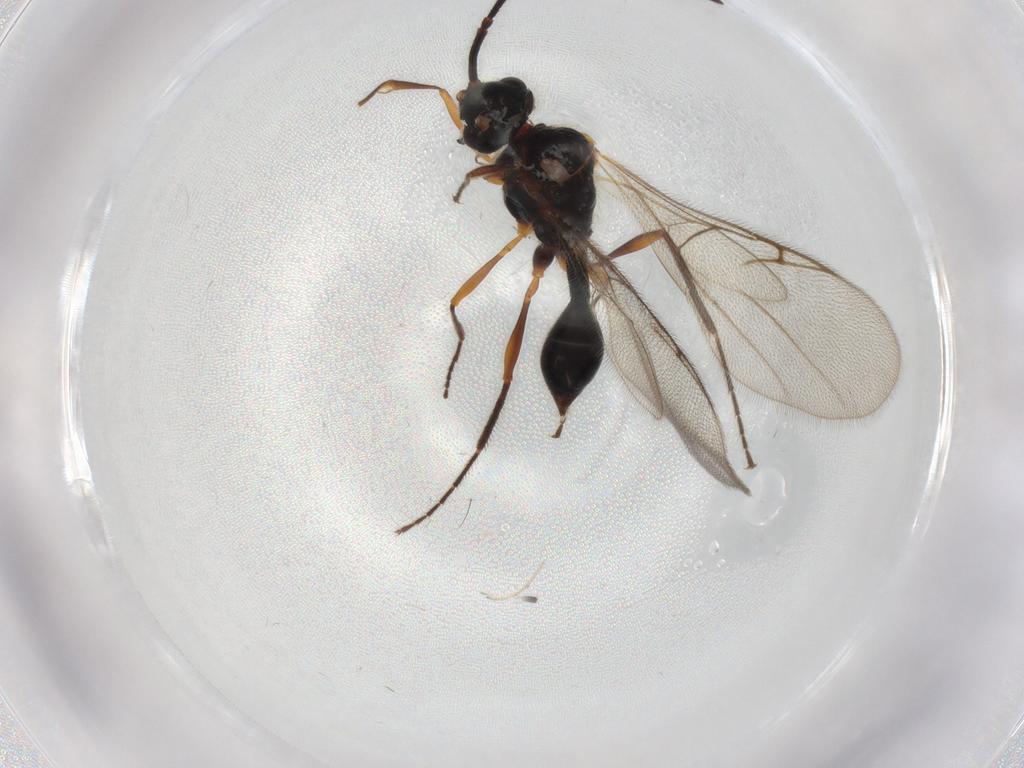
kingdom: Animalia
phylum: Arthropoda
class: Insecta
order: Hymenoptera
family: Diapriidae
